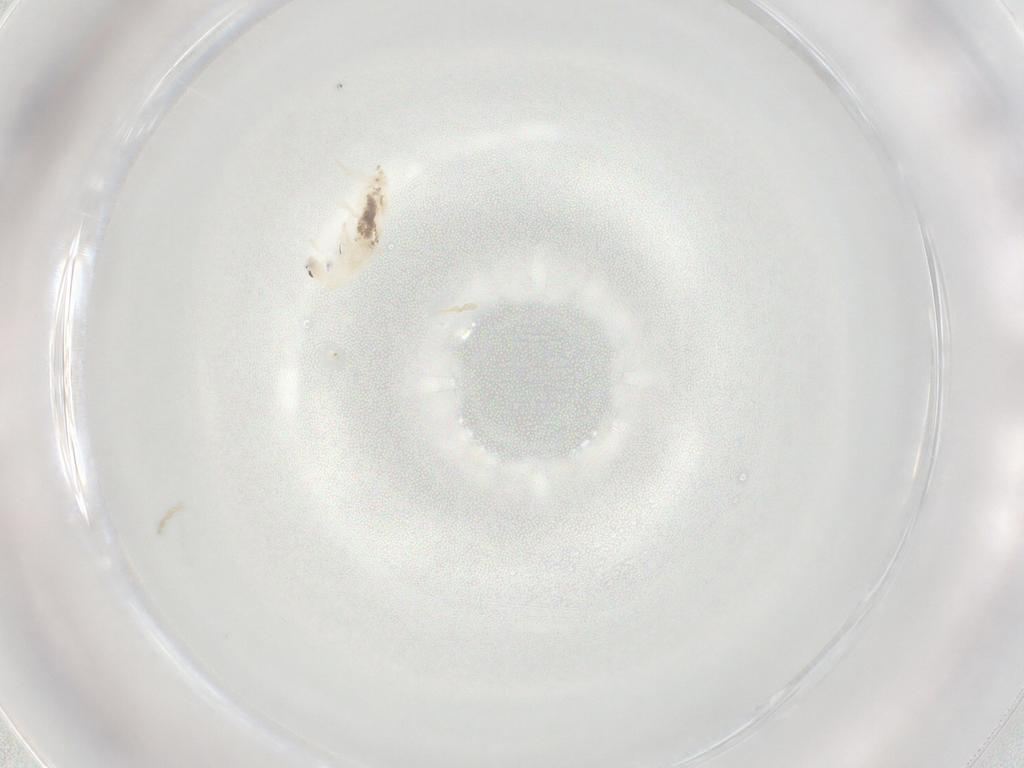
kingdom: Animalia
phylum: Arthropoda
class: Collembola
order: Entomobryomorpha
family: Entomobryidae
